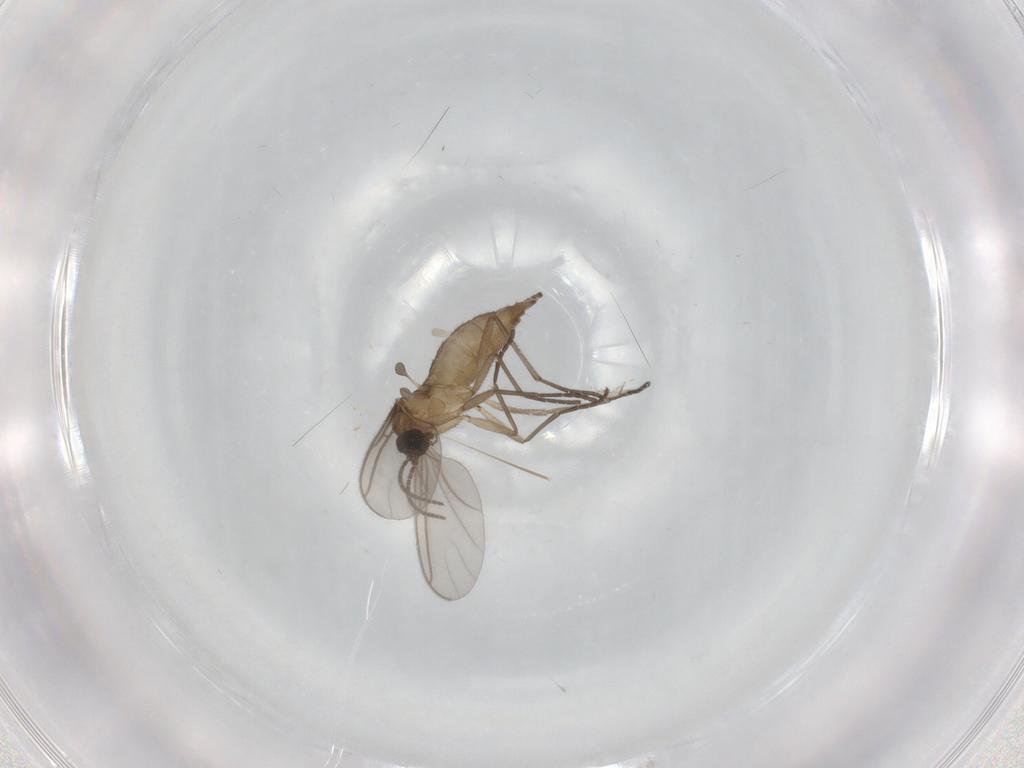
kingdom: Animalia
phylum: Arthropoda
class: Insecta
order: Diptera
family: Sciaridae
